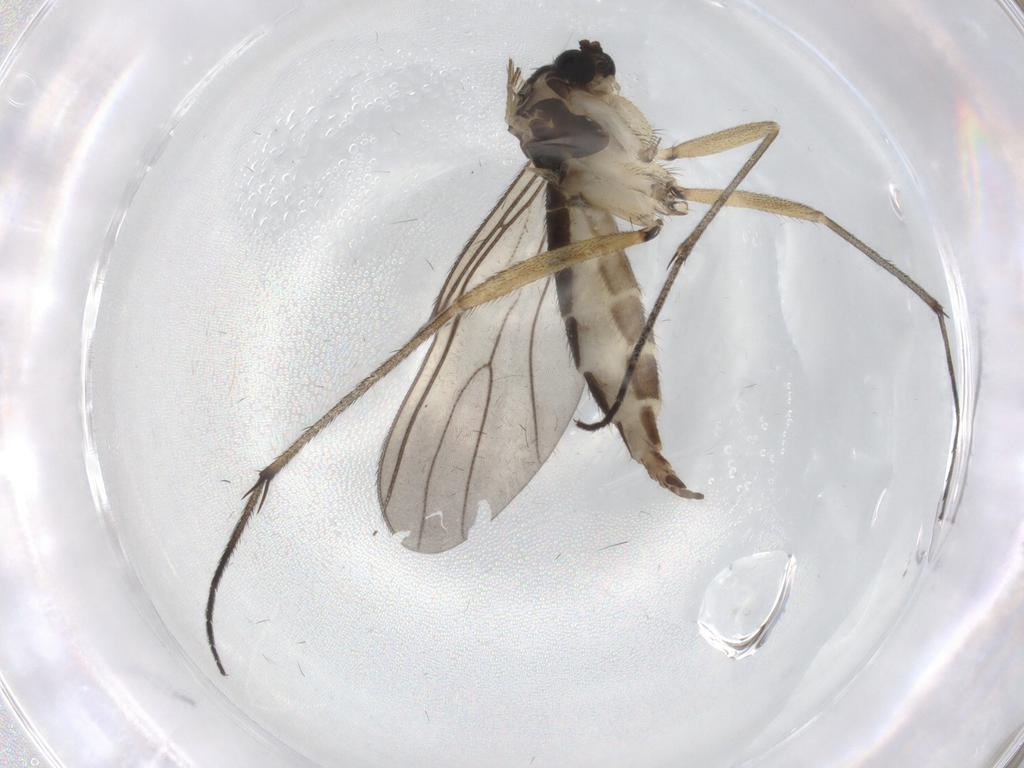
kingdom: Animalia
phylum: Arthropoda
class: Insecta
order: Diptera
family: Sciaridae
